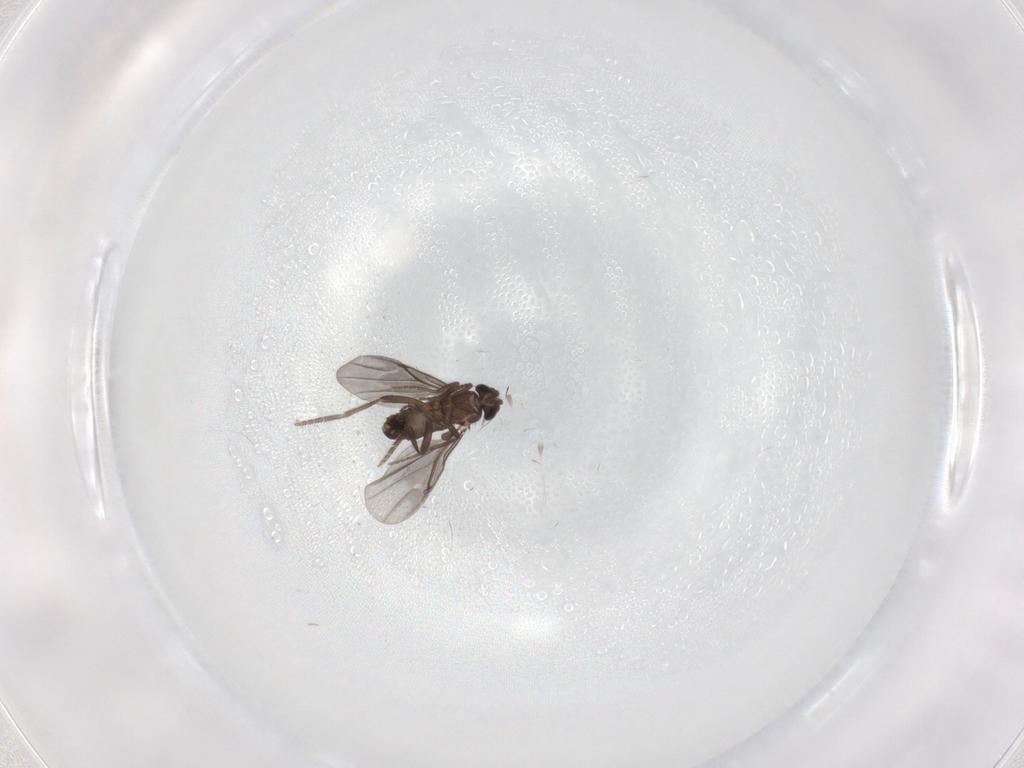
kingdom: Animalia
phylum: Arthropoda
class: Insecta
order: Diptera
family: Phoridae
